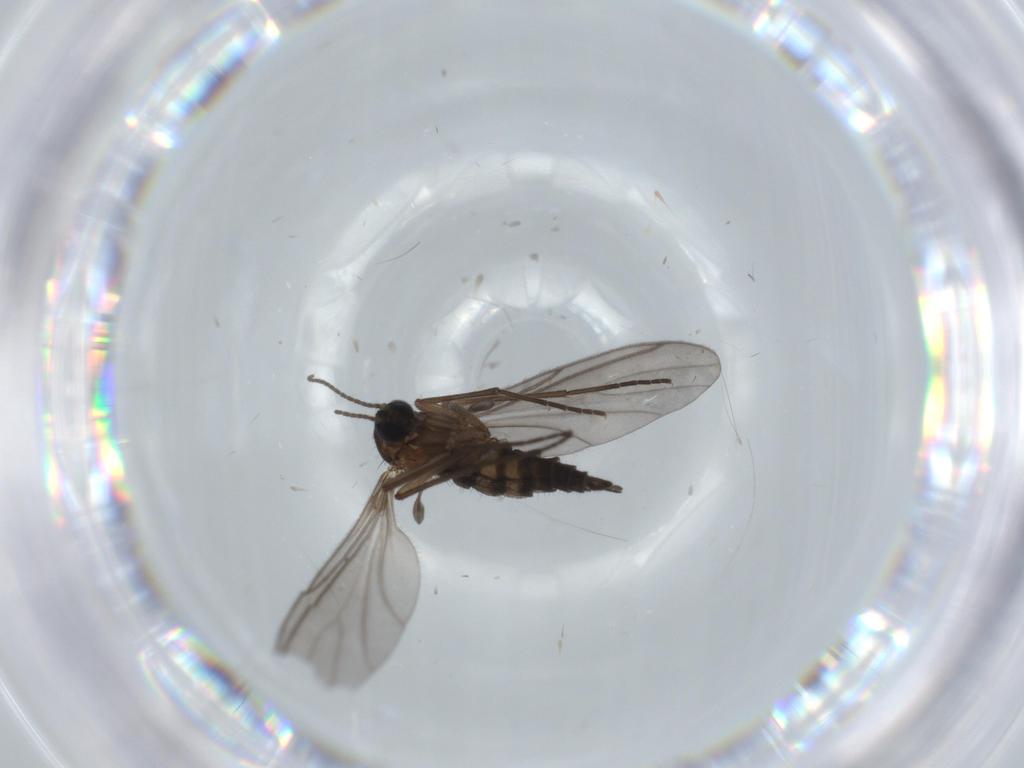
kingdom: Animalia
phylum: Arthropoda
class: Insecta
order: Diptera
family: Sciaridae
